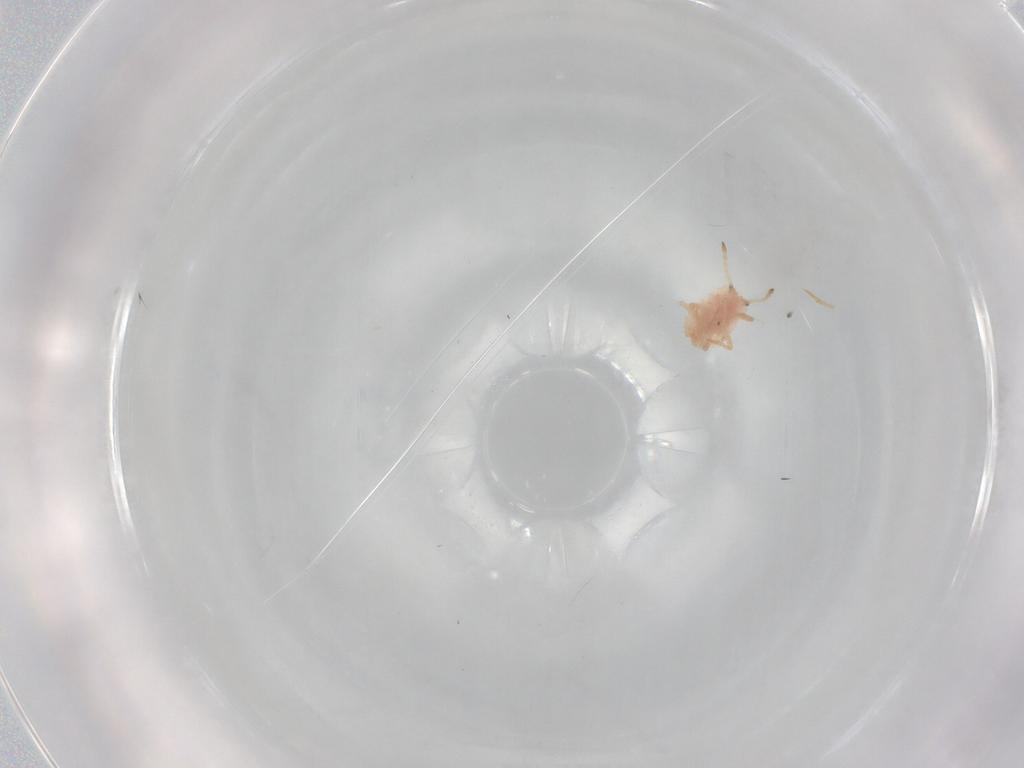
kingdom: Animalia
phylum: Arthropoda
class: Insecta
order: Hemiptera
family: Coccoidea_incertae_sedis
